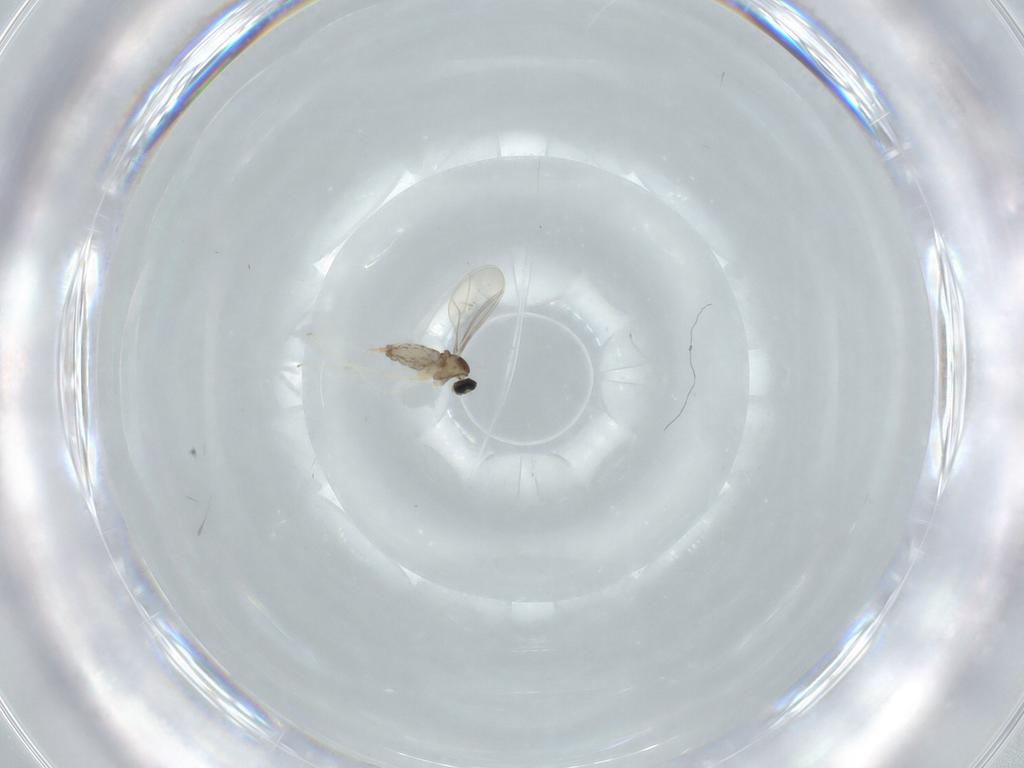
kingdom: Animalia
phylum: Arthropoda
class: Insecta
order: Diptera
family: Cecidomyiidae
